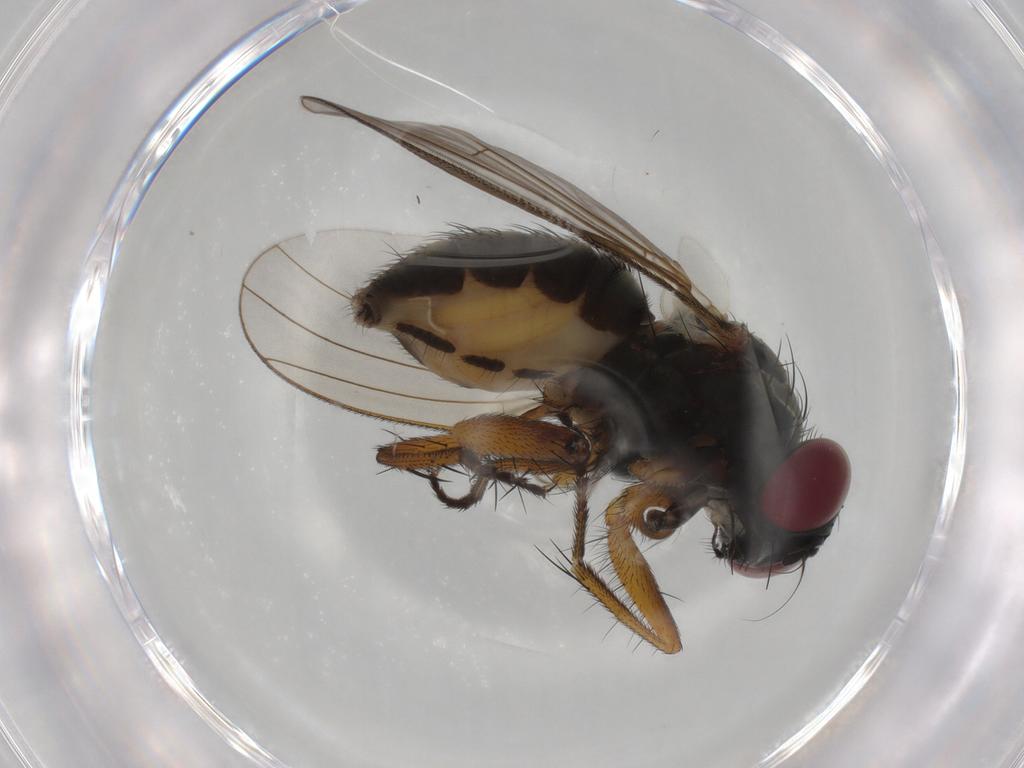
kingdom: Animalia
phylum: Arthropoda
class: Insecta
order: Diptera
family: Muscidae
